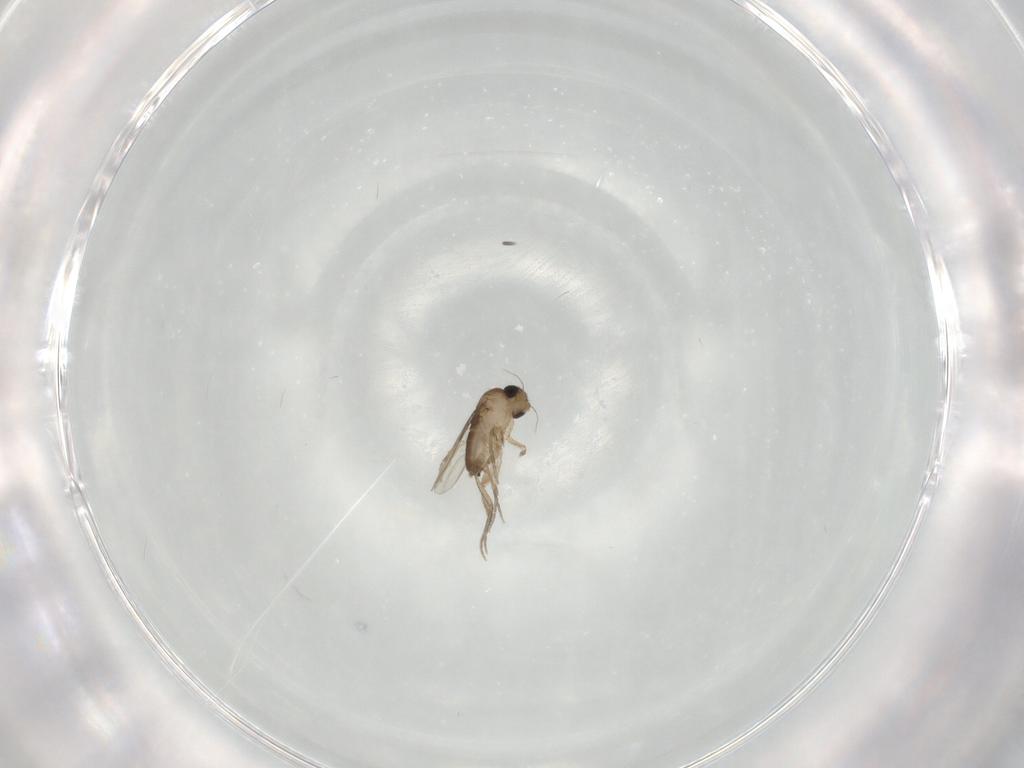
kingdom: Animalia
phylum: Arthropoda
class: Insecta
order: Diptera
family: Phoridae
